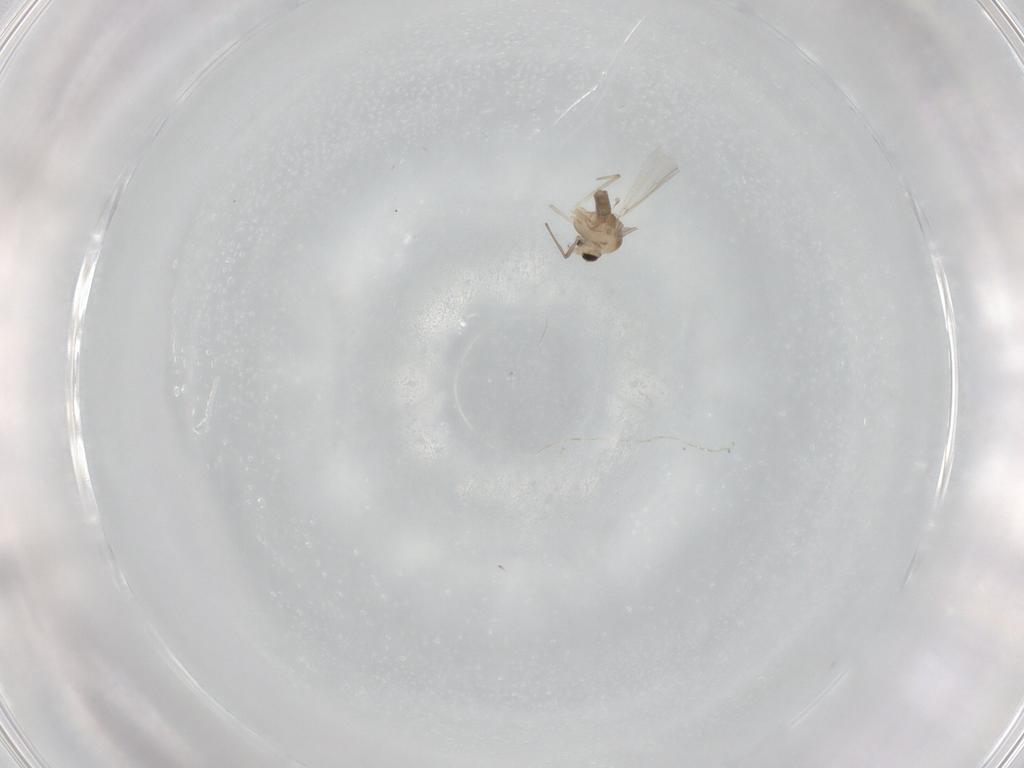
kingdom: Animalia
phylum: Arthropoda
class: Insecta
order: Diptera
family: Chironomidae
